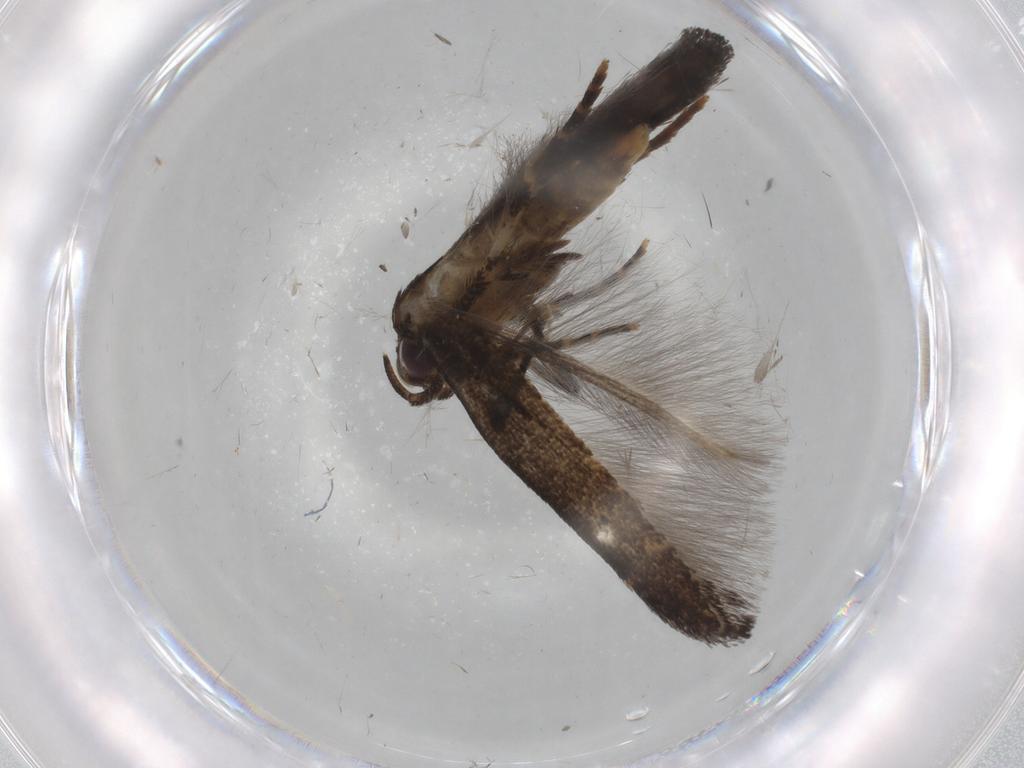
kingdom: Animalia
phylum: Arthropoda
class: Insecta
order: Lepidoptera
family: Cosmopterigidae
